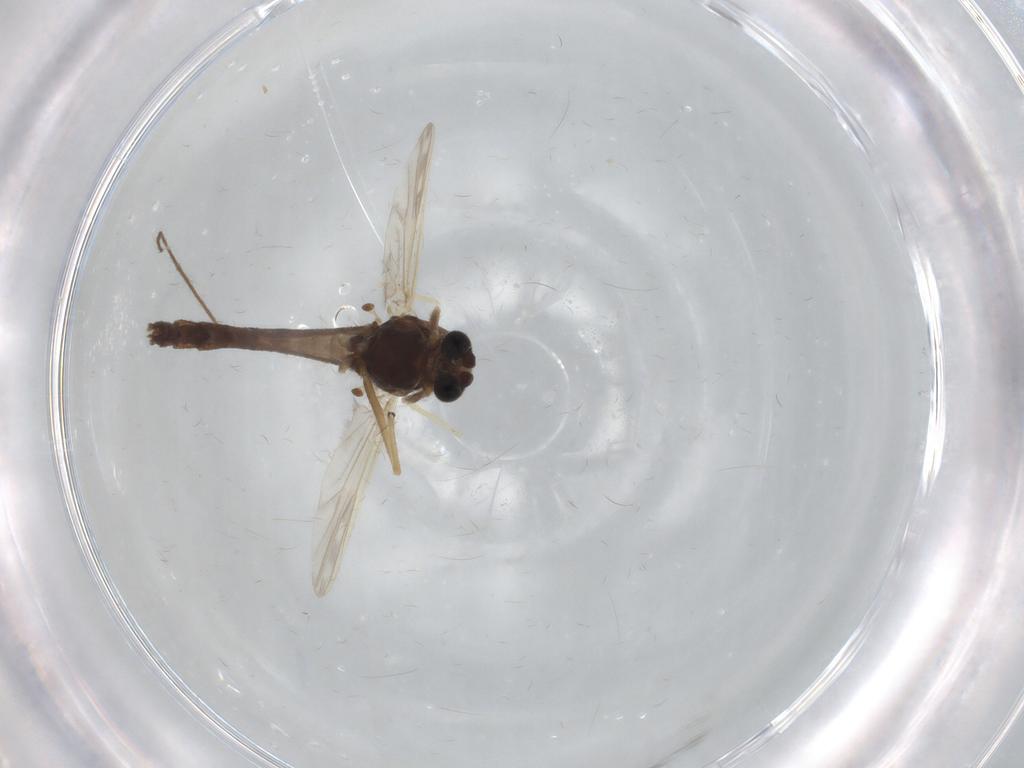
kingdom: Animalia
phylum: Arthropoda
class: Insecta
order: Diptera
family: Chironomidae
